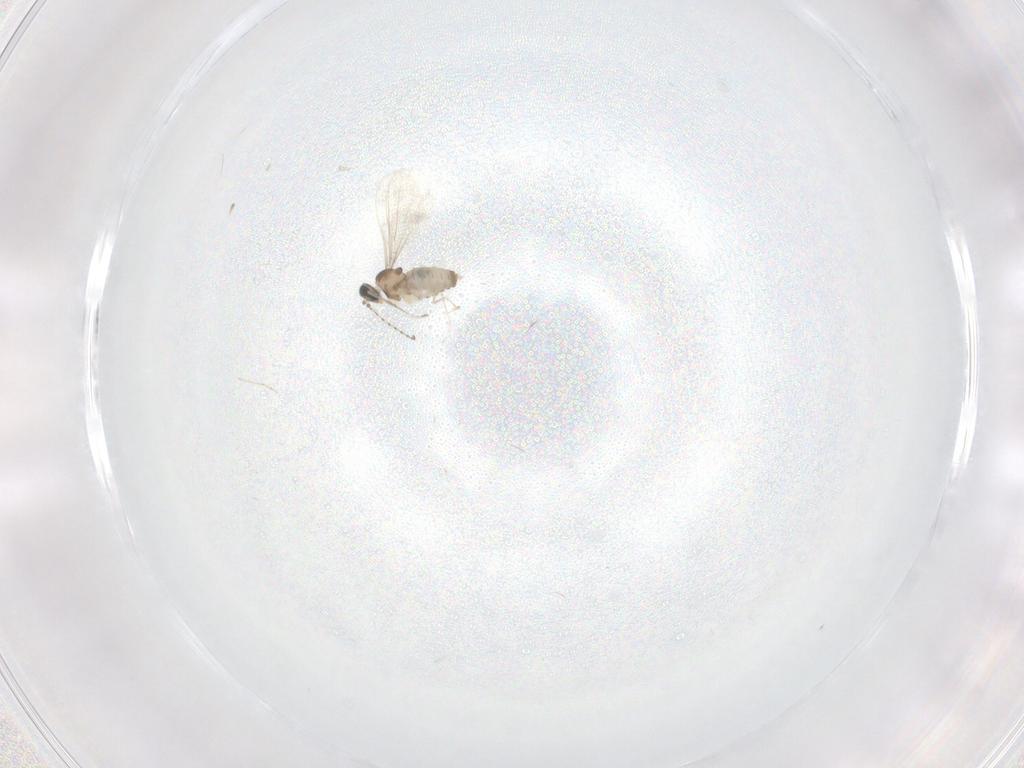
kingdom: Animalia
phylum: Arthropoda
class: Insecta
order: Diptera
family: Cecidomyiidae
